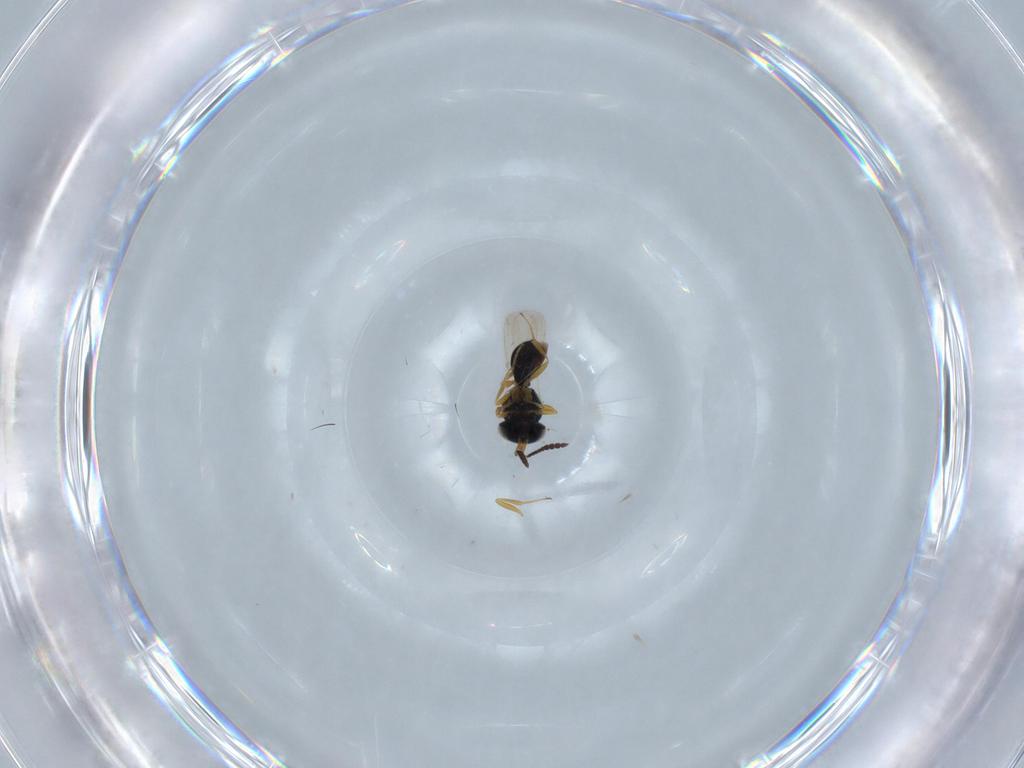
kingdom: Animalia
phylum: Arthropoda
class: Insecta
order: Hymenoptera
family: Scelionidae
